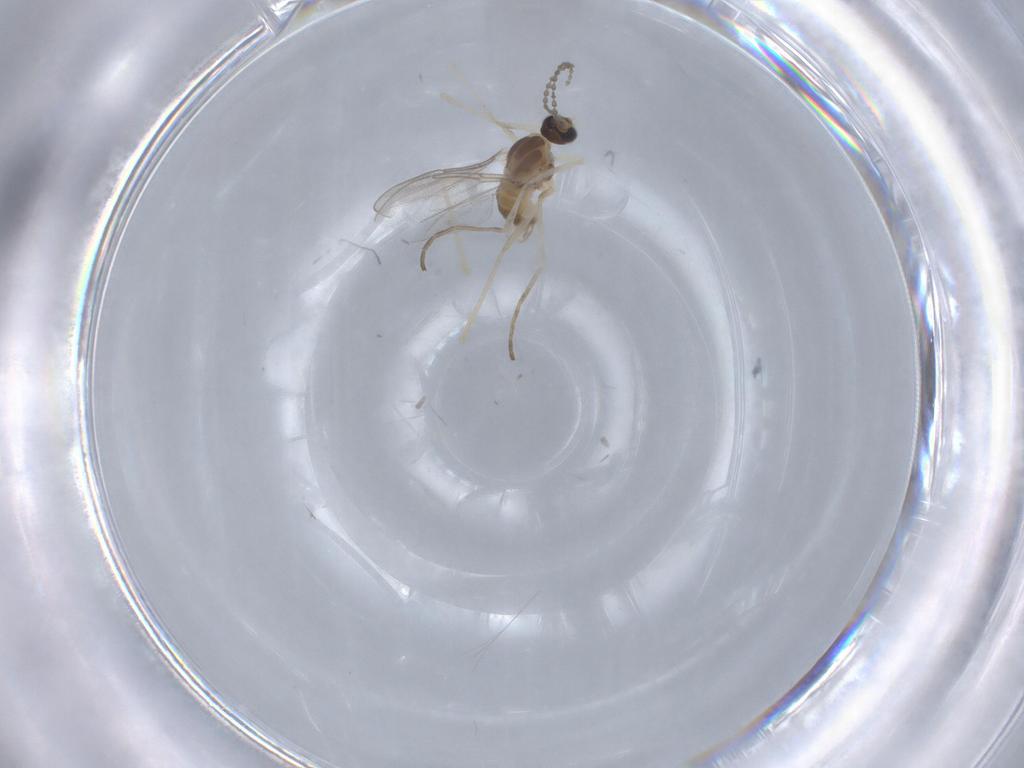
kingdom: Animalia
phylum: Arthropoda
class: Insecta
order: Diptera
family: Cecidomyiidae
